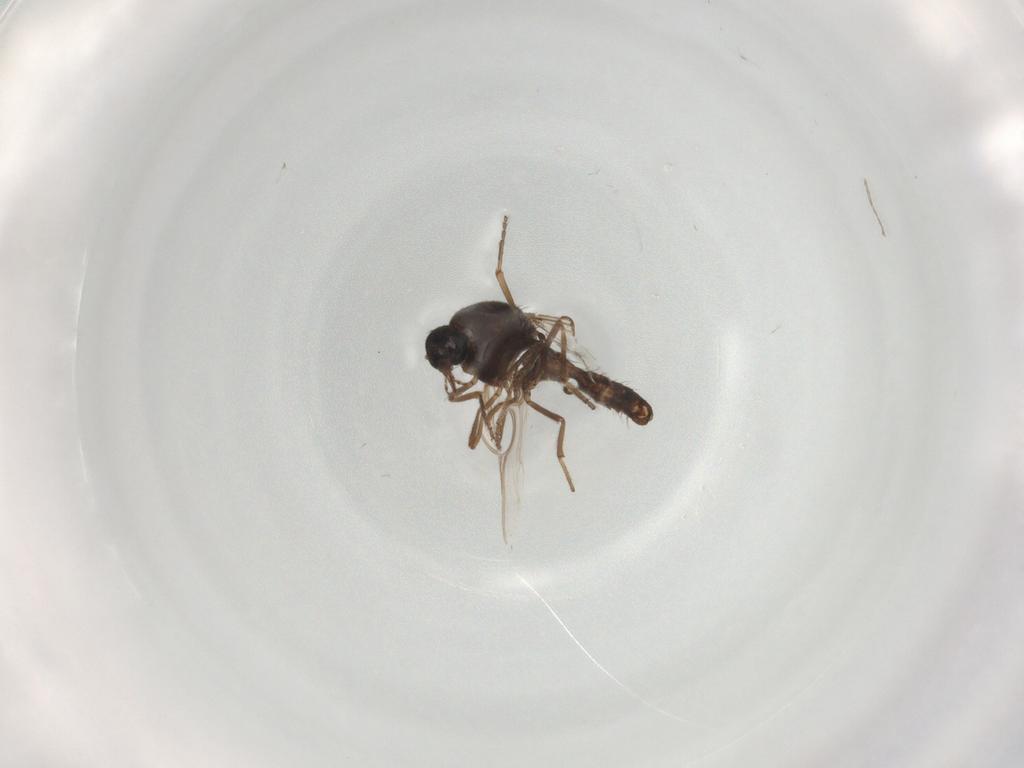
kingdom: Animalia
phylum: Arthropoda
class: Insecta
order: Diptera
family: Ceratopogonidae
